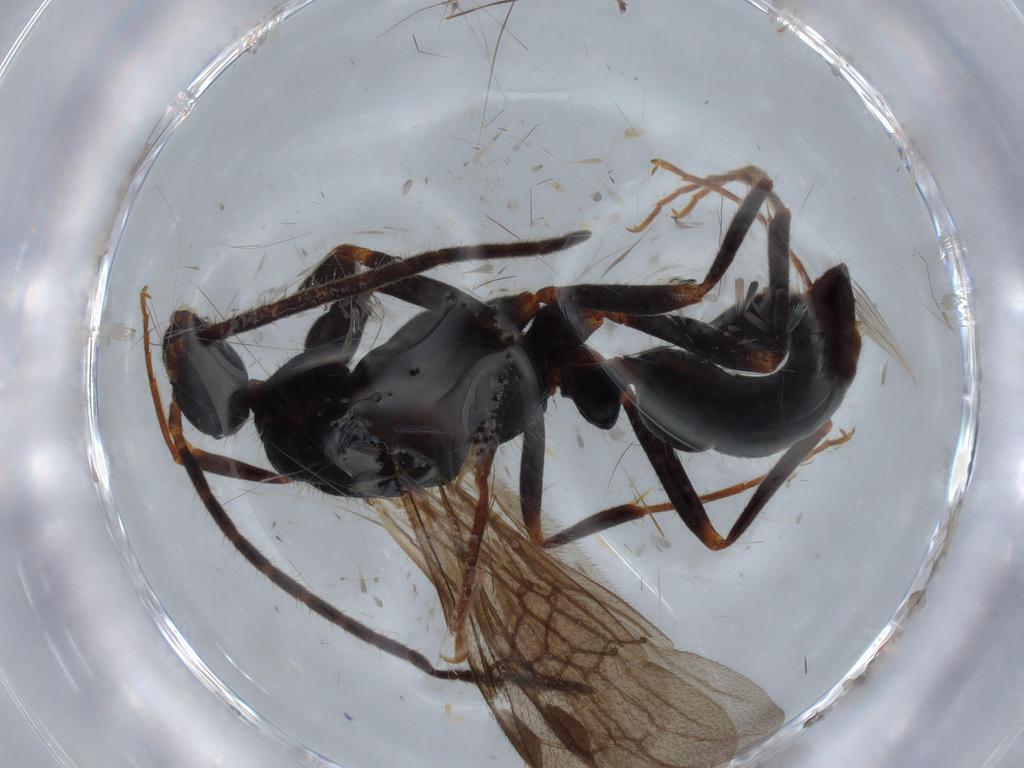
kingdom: Animalia
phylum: Arthropoda
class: Insecta
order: Hymenoptera
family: Formicidae
